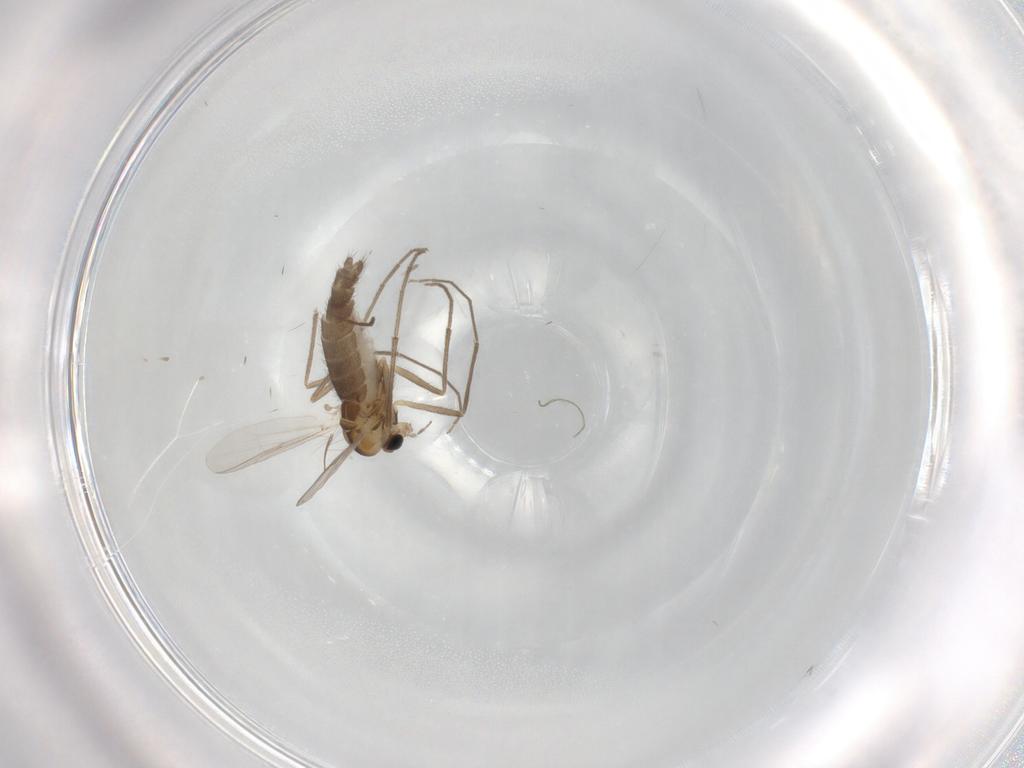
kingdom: Animalia
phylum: Arthropoda
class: Insecta
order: Diptera
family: Chironomidae
